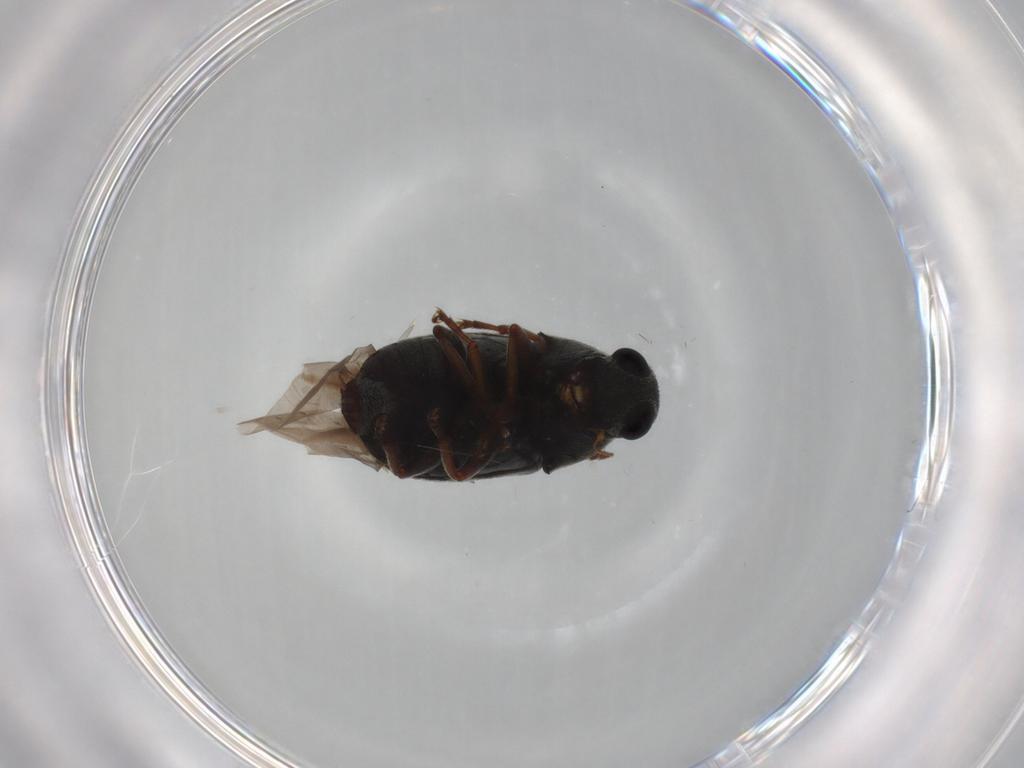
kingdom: Animalia
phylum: Arthropoda
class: Insecta
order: Coleoptera
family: Anthribidae
